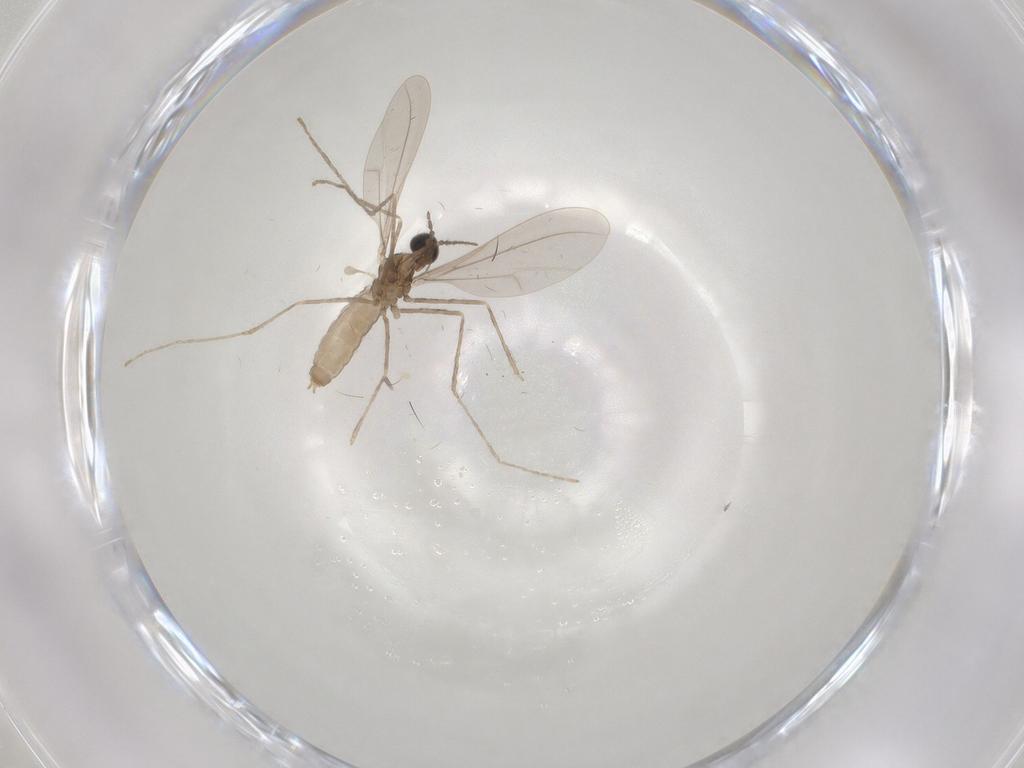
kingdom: Animalia
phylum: Arthropoda
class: Insecta
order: Diptera
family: Cecidomyiidae
